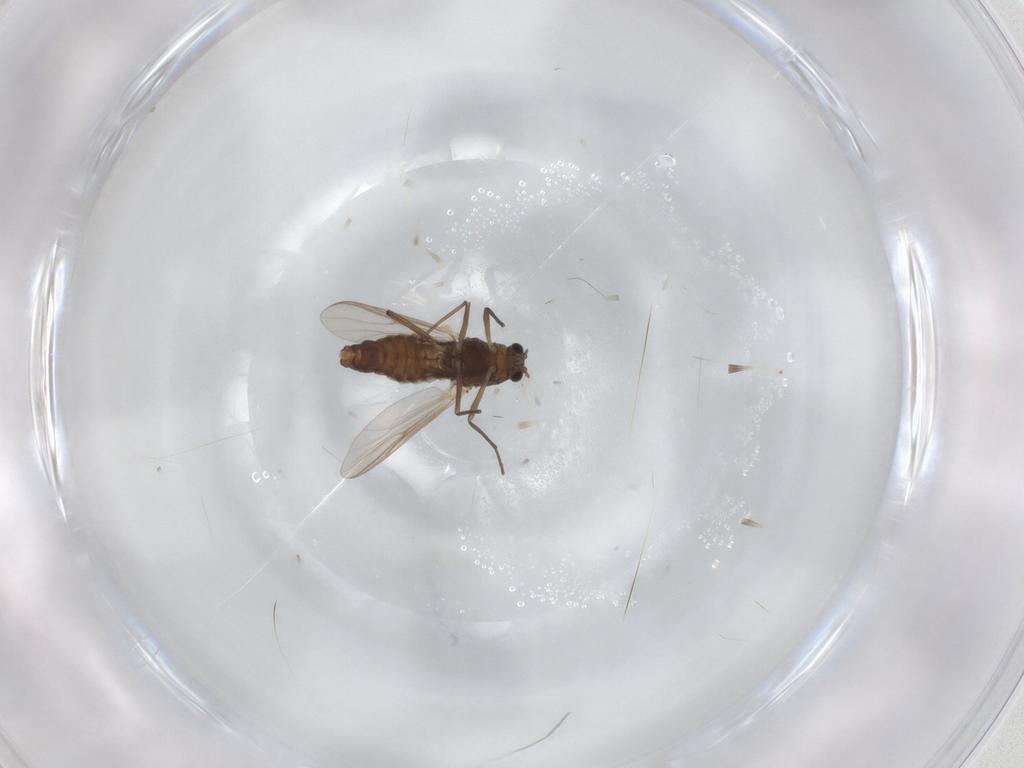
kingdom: Animalia
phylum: Arthropoda
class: Insecta
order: Diptera
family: Chironomidae
